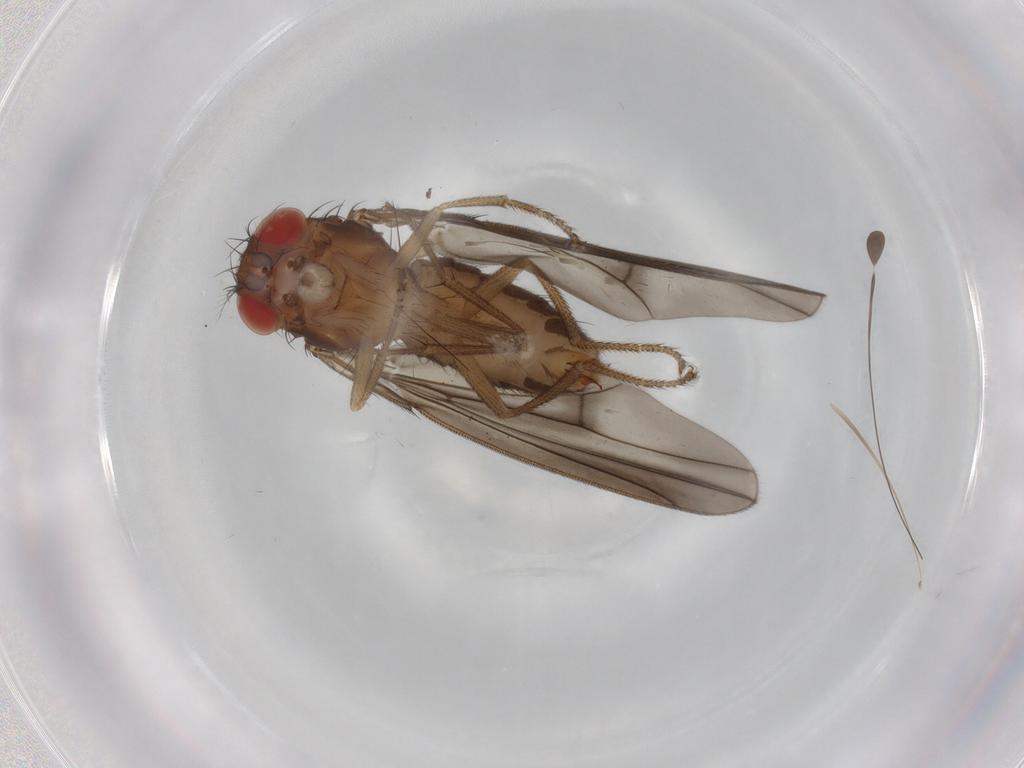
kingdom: Animalia
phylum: Arthropoda
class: Insecta
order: Diptera
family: Drosophilidae
